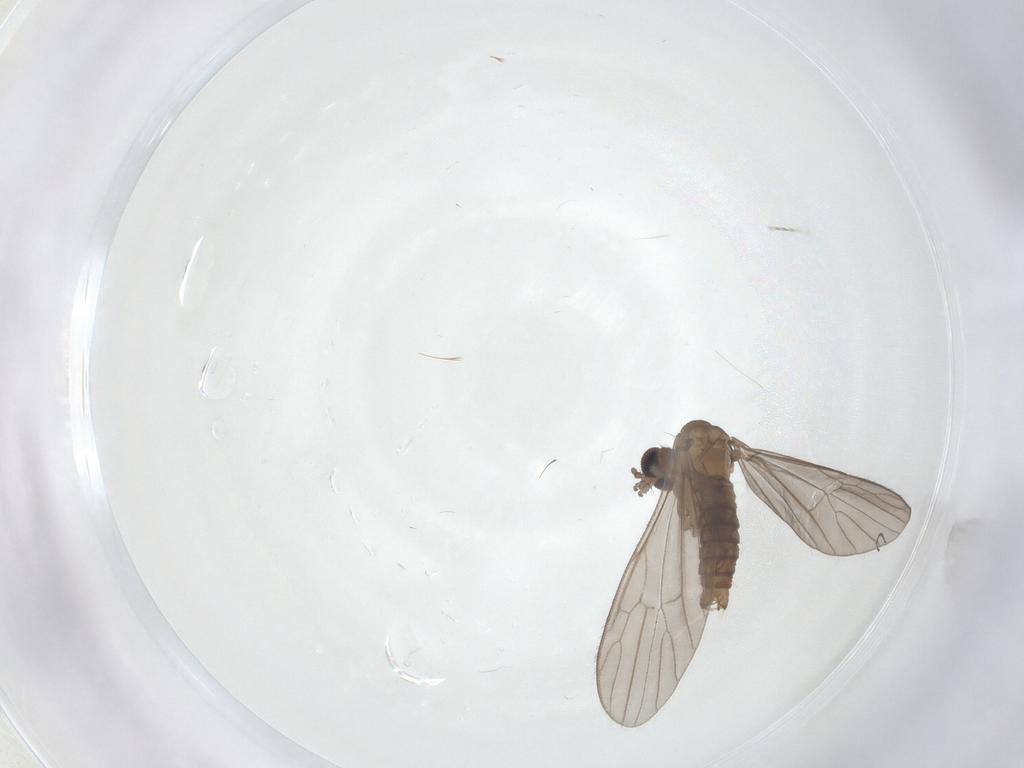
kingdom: Animalia
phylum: Arthropoda
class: Insecta
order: Diptera
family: Limoniidae
